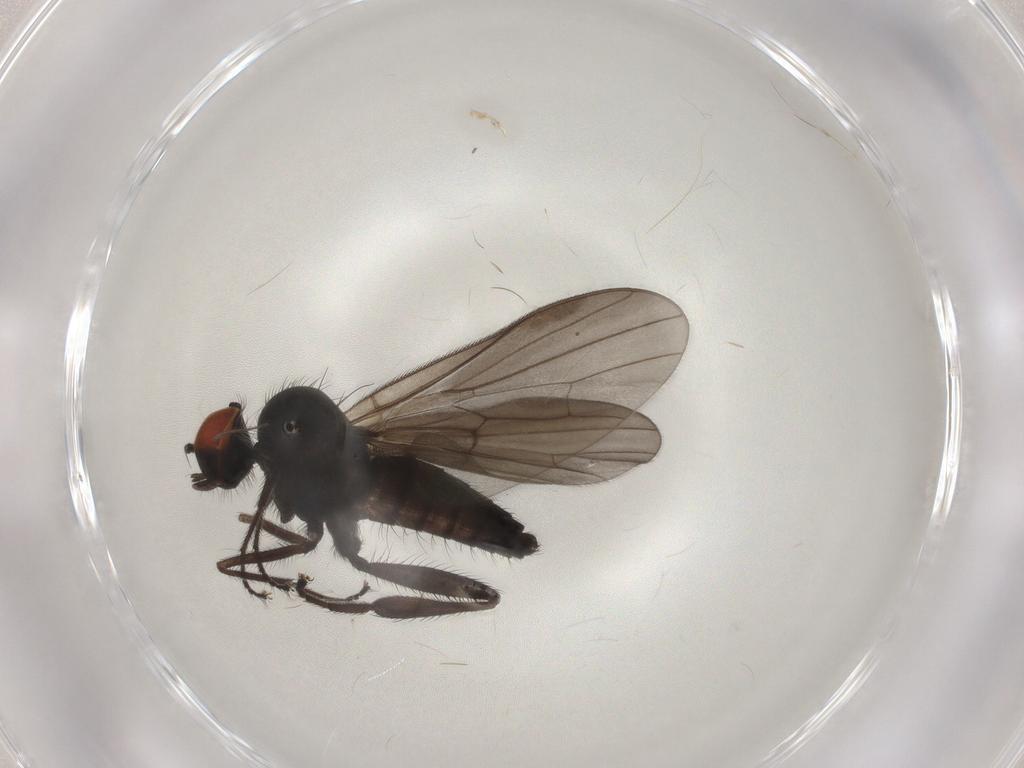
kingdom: Animalia
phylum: Arthropoda
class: Insecta
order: Diptera
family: Hybotidae
